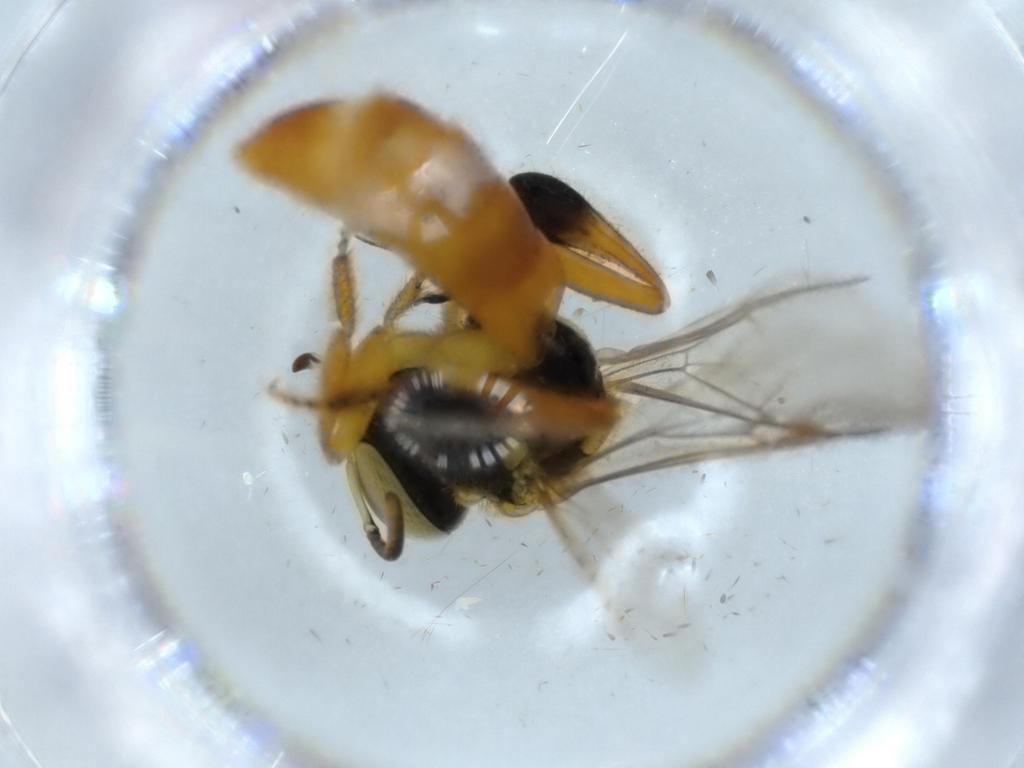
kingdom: Animalia
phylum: Arthropoda
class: Insecta
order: Hymenoptera
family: Apidae
